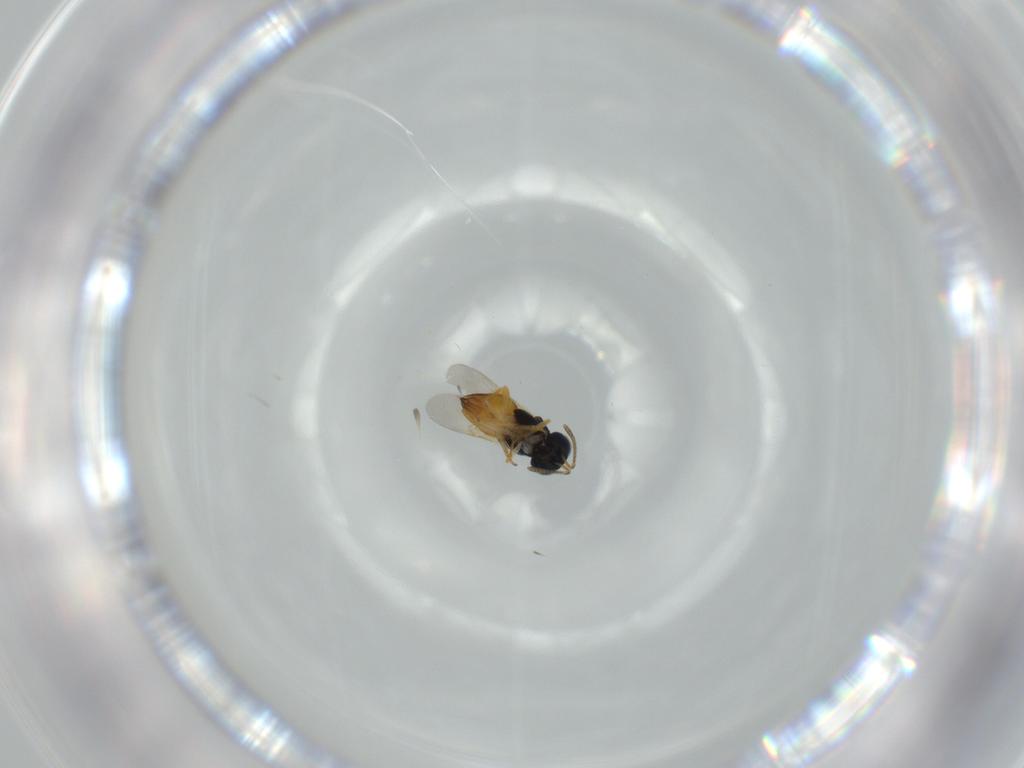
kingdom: Animalia
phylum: Arthropoda
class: Insecta
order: Hymenoptera
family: Scelionidae
